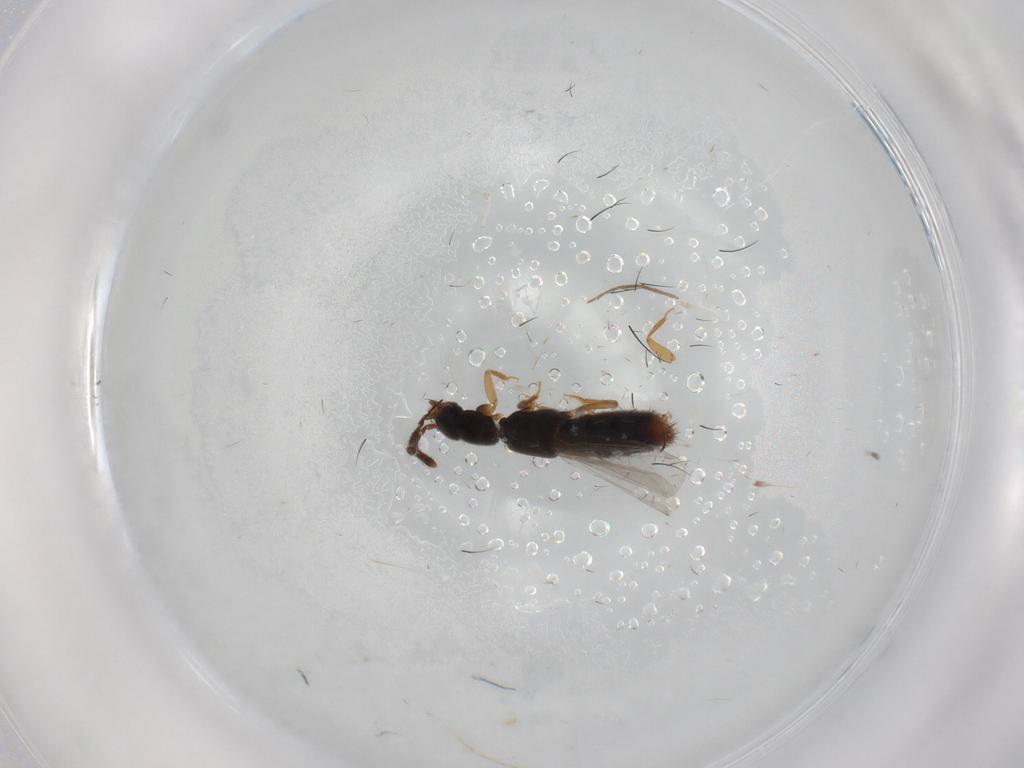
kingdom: Animalia
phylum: Arthropoda
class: Insecta
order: Coleoptera
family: Staphylinidae
